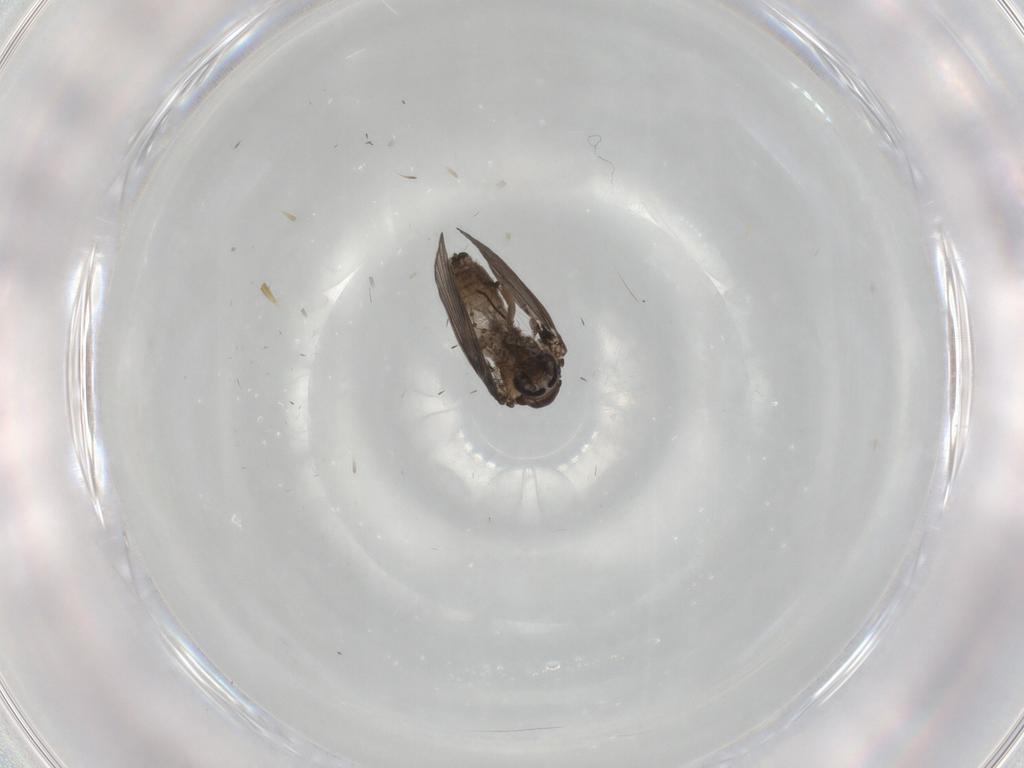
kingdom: Animalia
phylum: Arthropoda
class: Insecta
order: Diptera
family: Psychodidae
